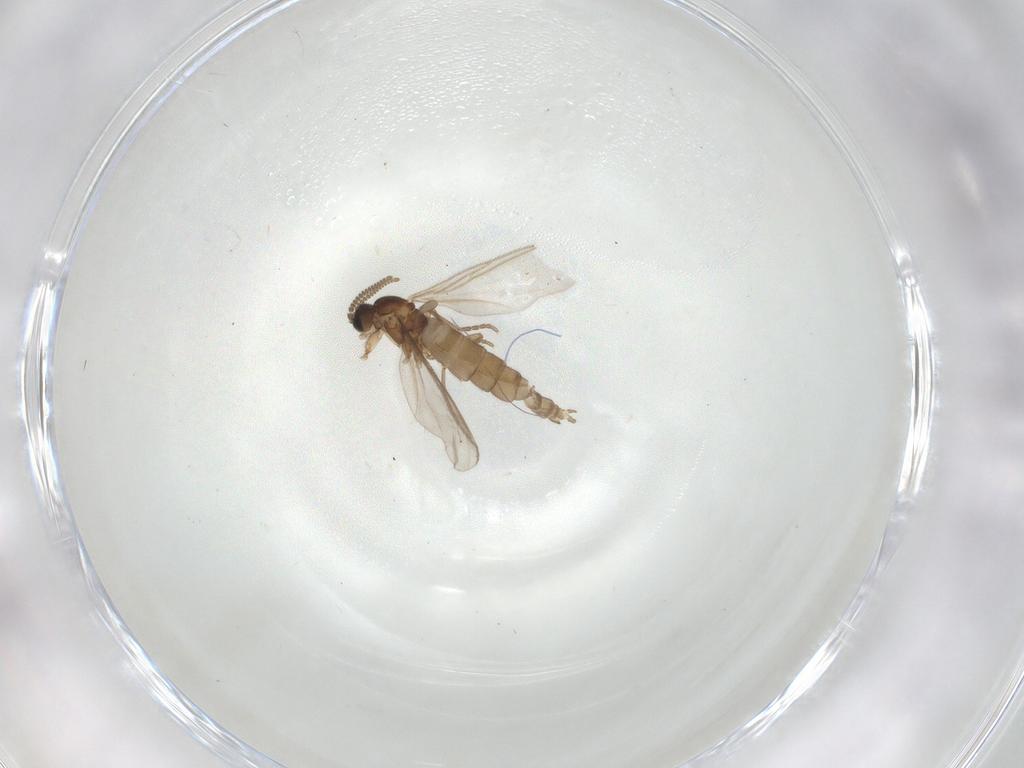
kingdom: Animalia
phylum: Arthropoda
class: Insecta
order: Diptera
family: Sciaridae
